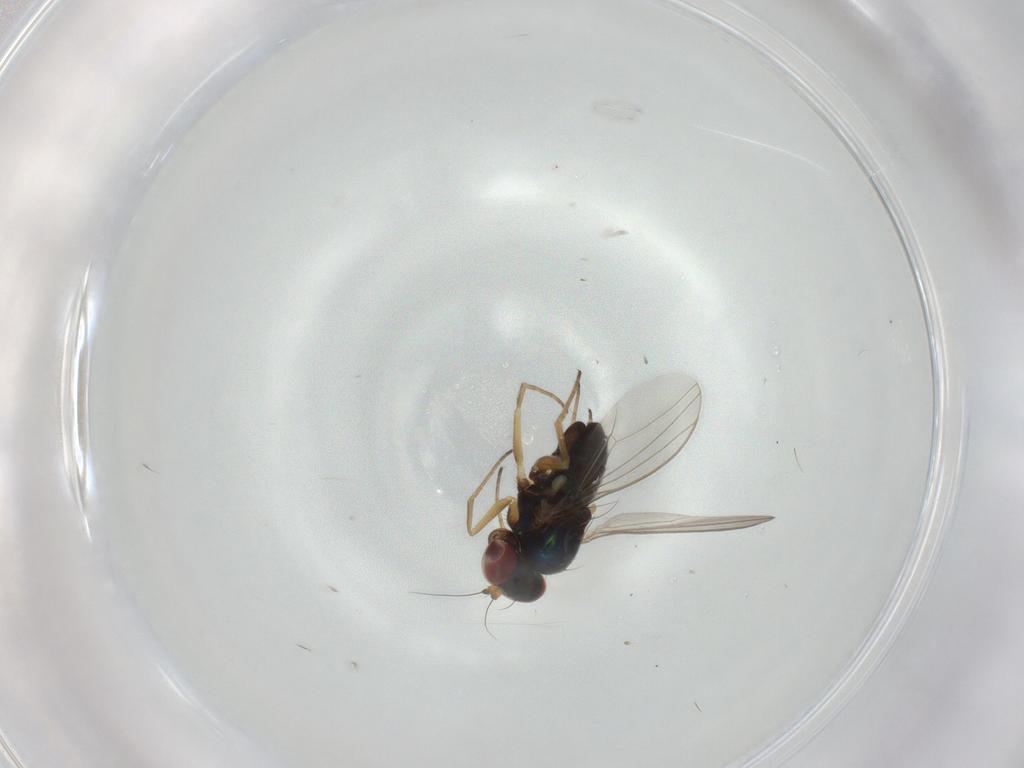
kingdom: Animalia
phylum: Arthropoda
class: Insecta
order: Diptera
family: Dolichopodidae
